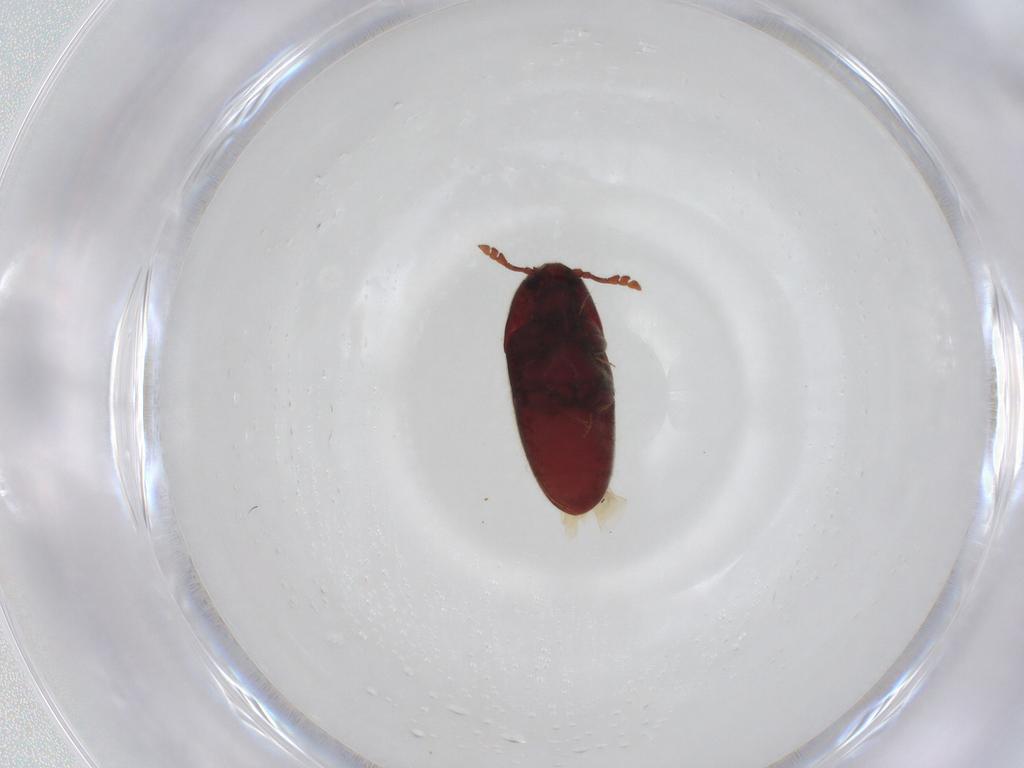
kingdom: Animalia
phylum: Arthropoda
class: Insecta
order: Coleoptera
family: Throscidae
